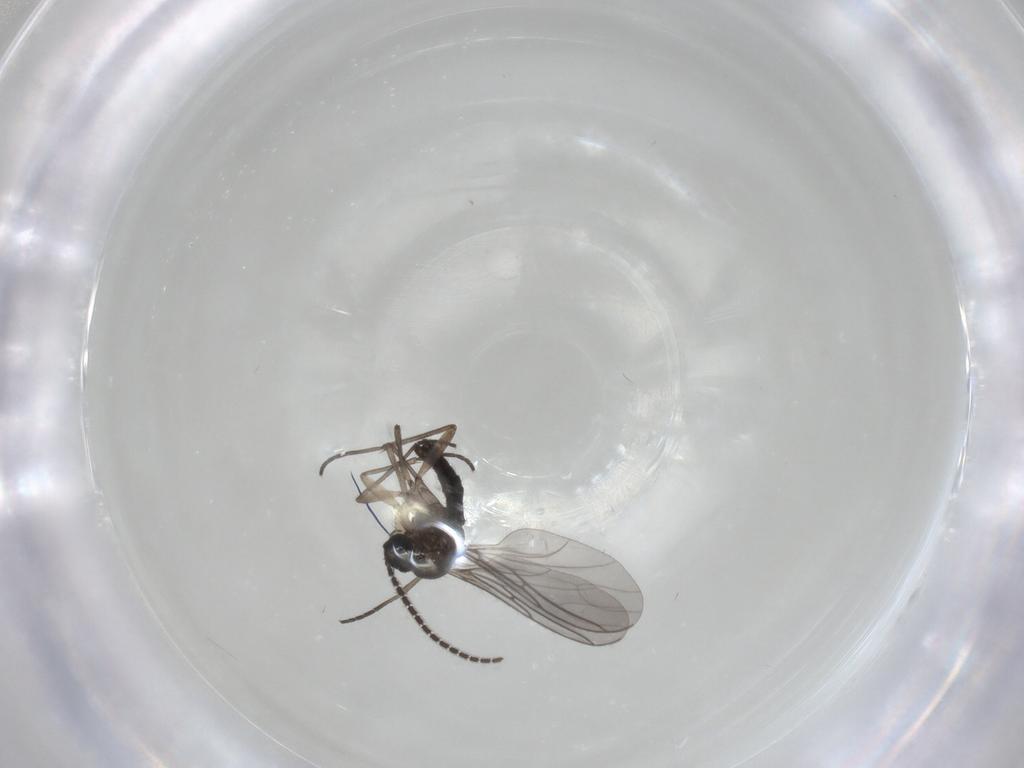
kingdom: Animalia
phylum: Arthropoda
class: Insecta
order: Diptera
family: Sciaridae
